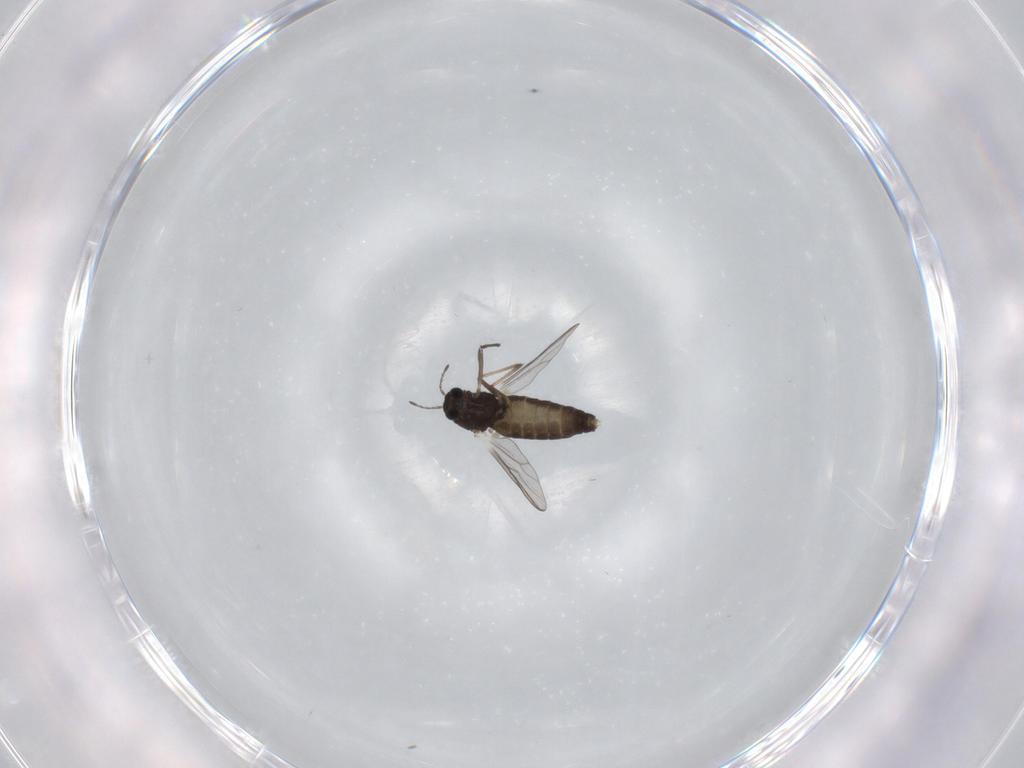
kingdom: Animalia
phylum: Arthropoda
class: Insecta
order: Diptera
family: Chironomidae
